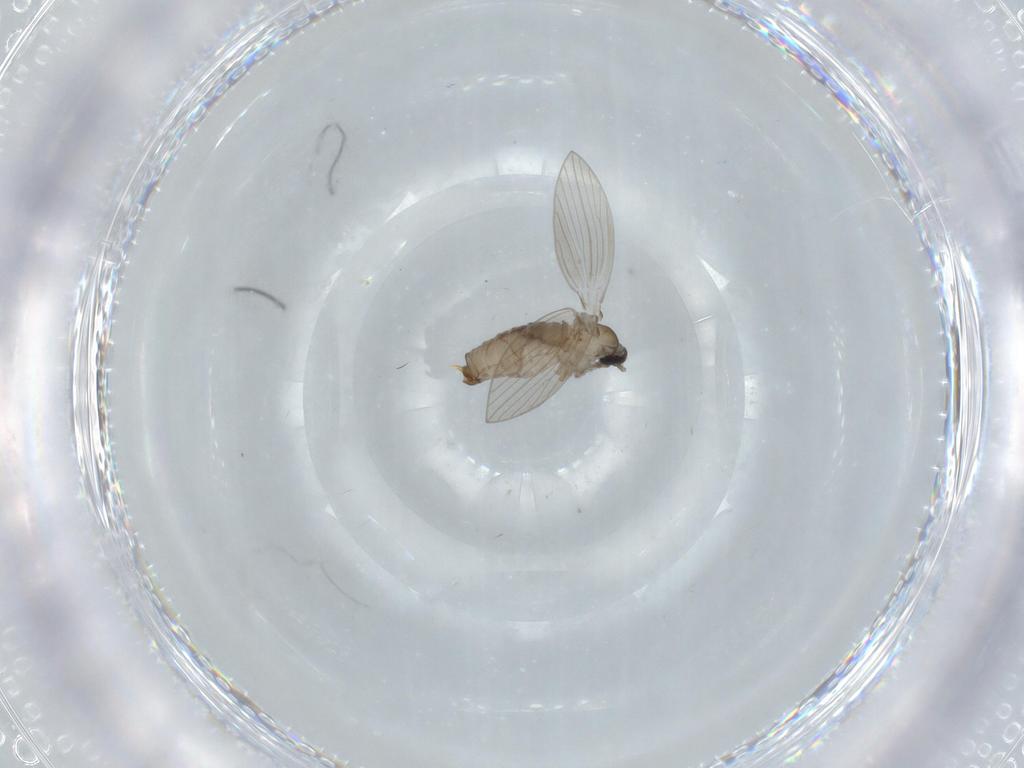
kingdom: Animalia
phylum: Arthropoda
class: Insecta
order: Diptera
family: Psychodidae
